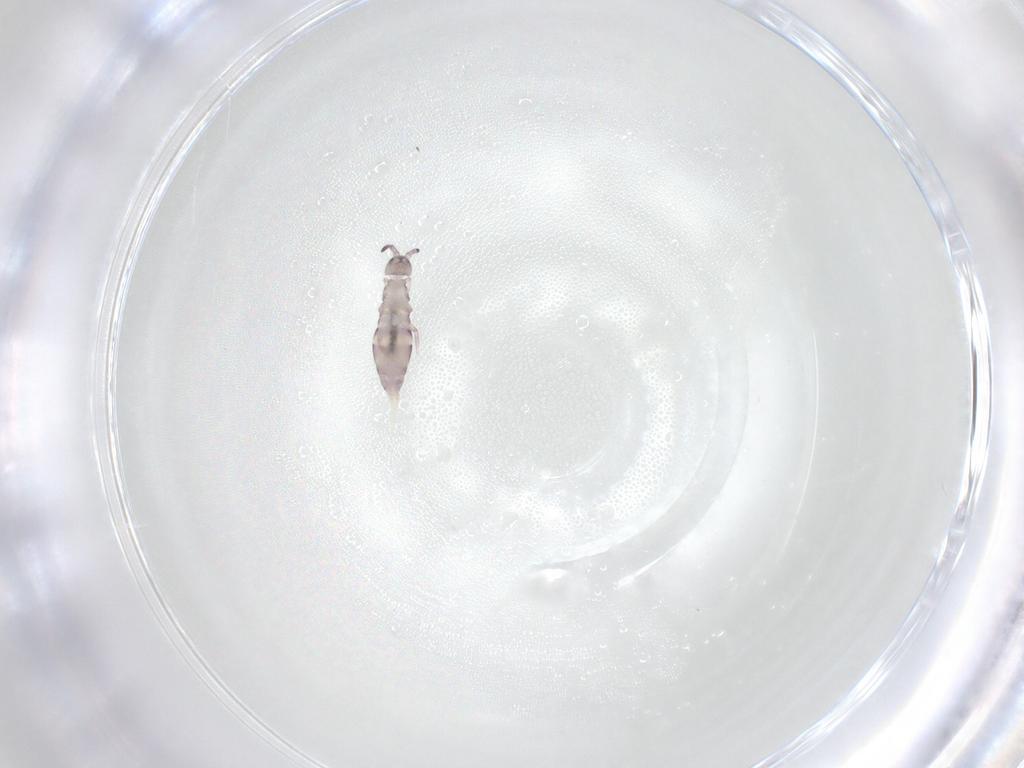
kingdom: Animalia
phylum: Arthropoda
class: Collembola
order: Entomobryomorpha
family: Isotomidae
